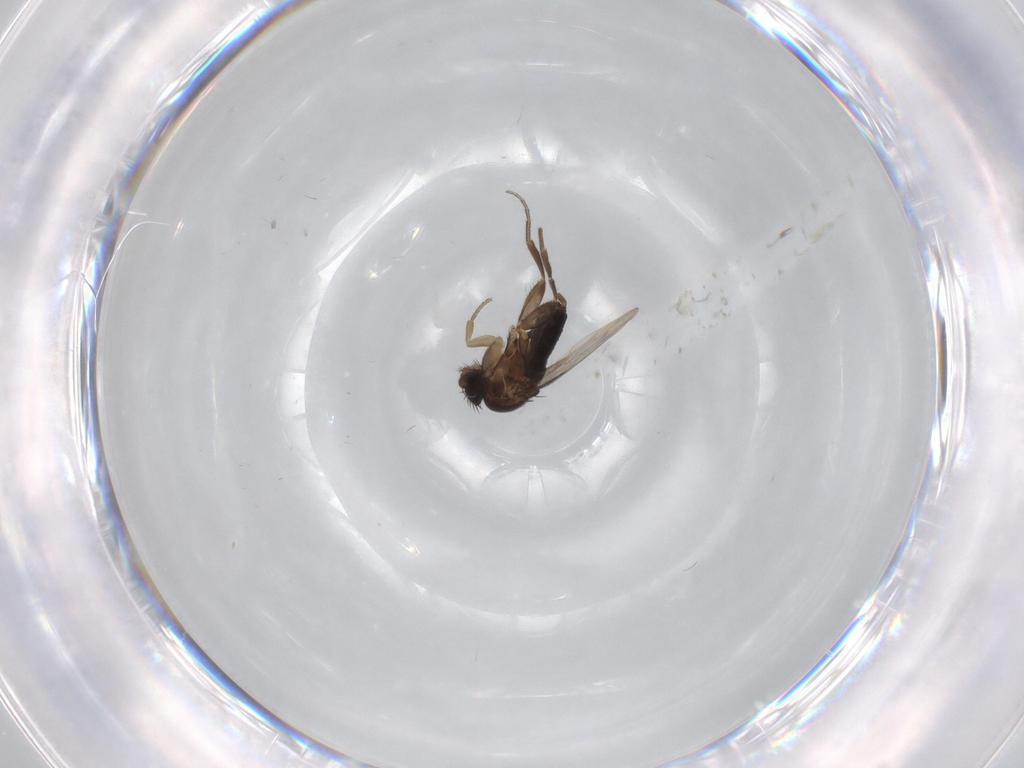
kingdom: Animalia
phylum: Arthropoda
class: Insecta
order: Diptera
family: Phoridae
